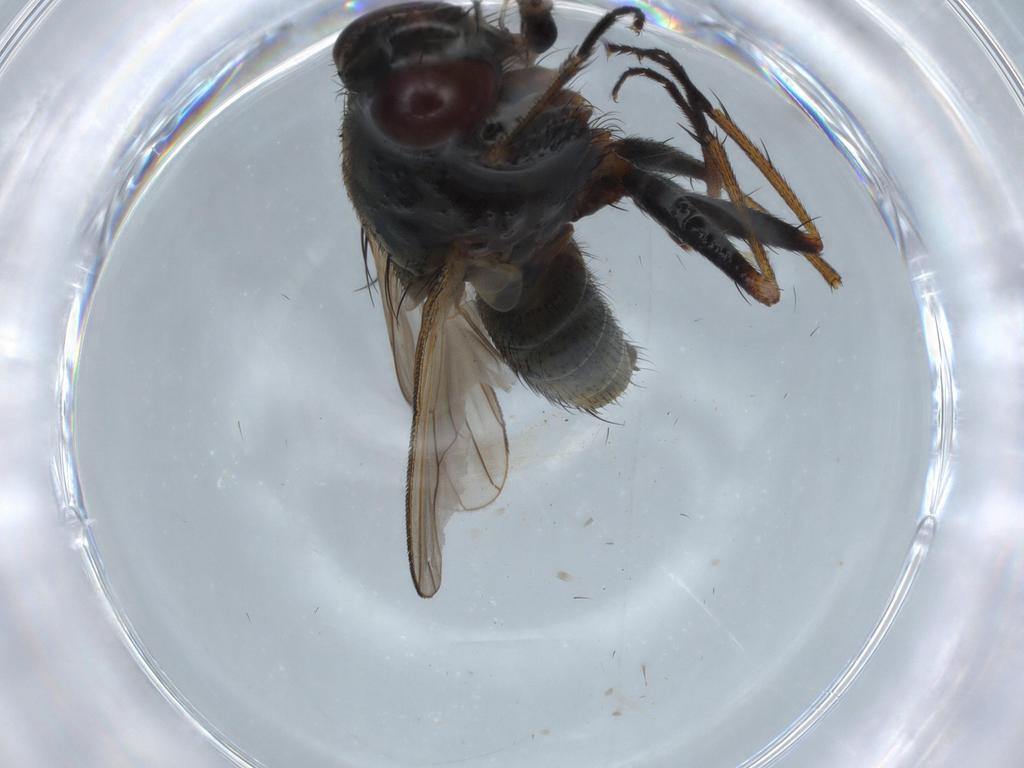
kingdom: Animalia
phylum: Arthropoda
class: Insecta
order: Diptera
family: Muscidae
